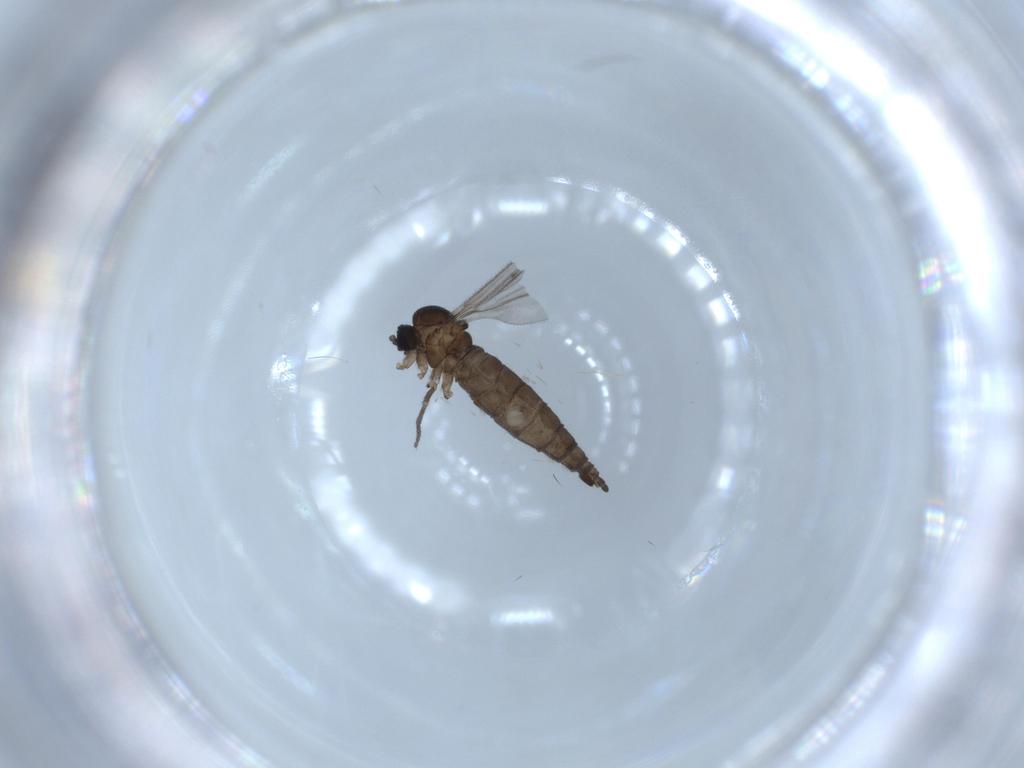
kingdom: Animalia
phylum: Arthropoda
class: Insecta
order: Diptera
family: Sciaridae
